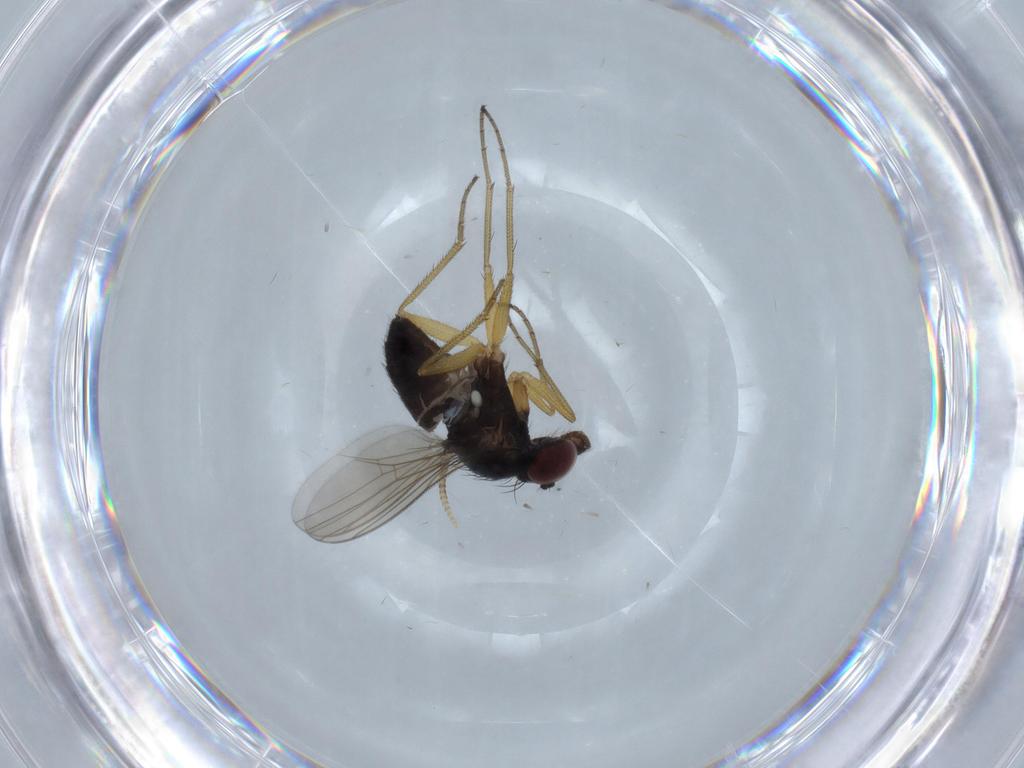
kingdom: Animalia
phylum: Arthropoda
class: Insecta
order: Diptera
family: Dolichopodidae
